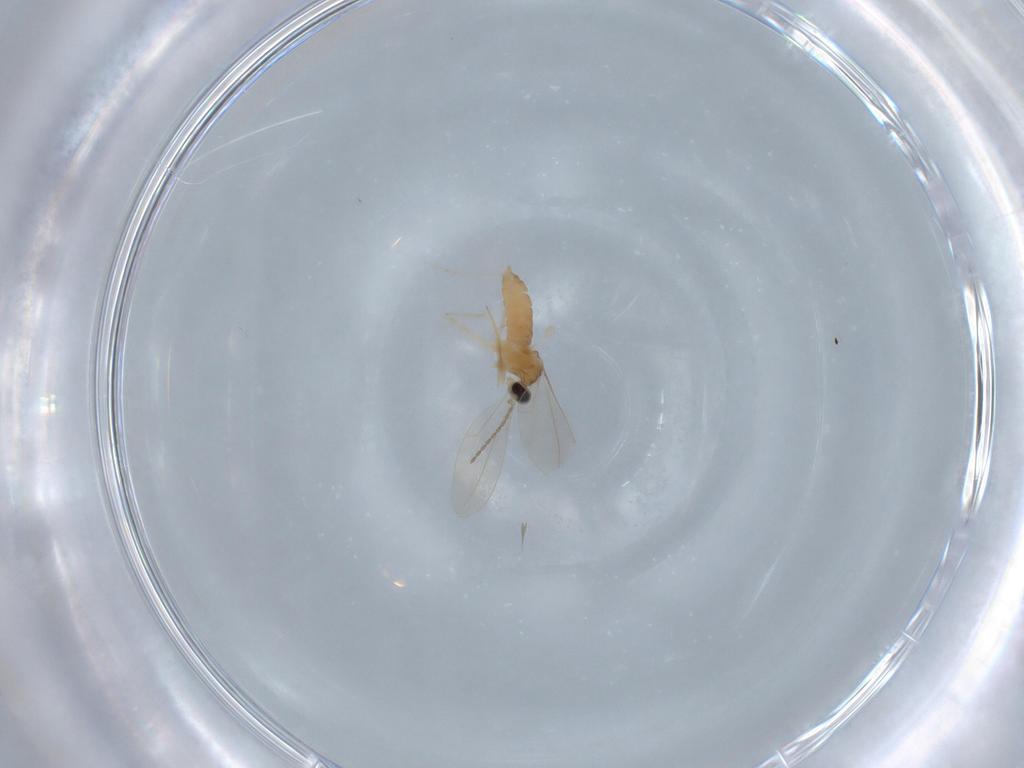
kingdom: Animalia
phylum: Arthropoda
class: Insecta
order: Diptera
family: Cecidomyiidae
